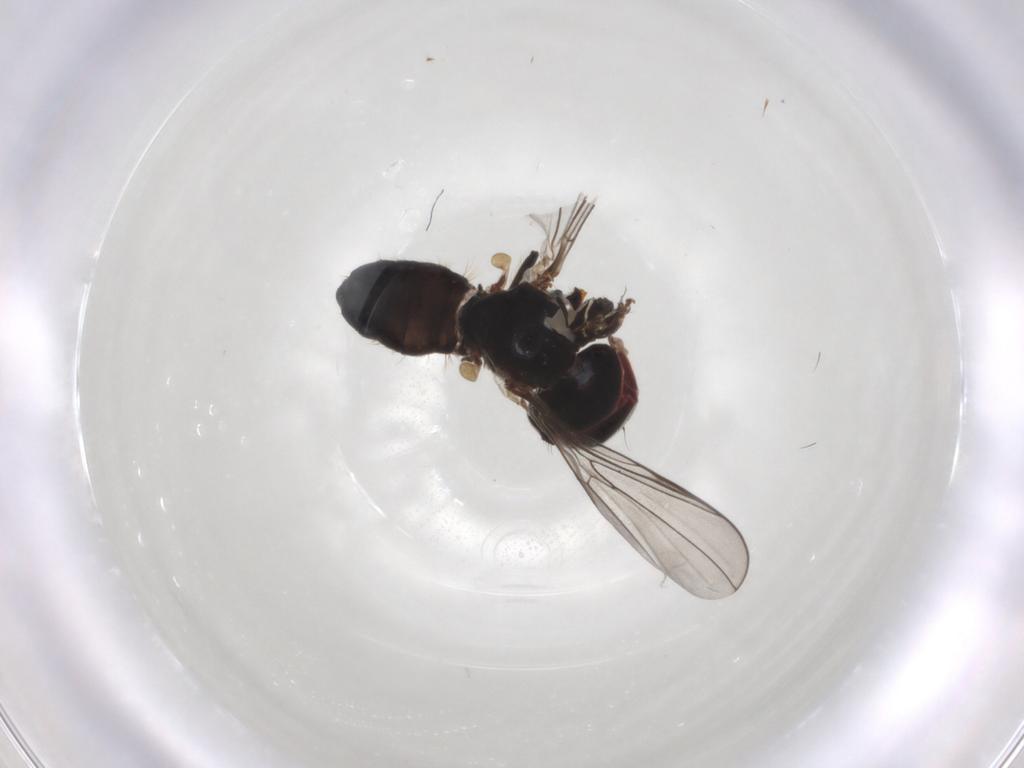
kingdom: Animalia
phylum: Arthropoda
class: Insecta
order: Diptera
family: Pipunculidae
